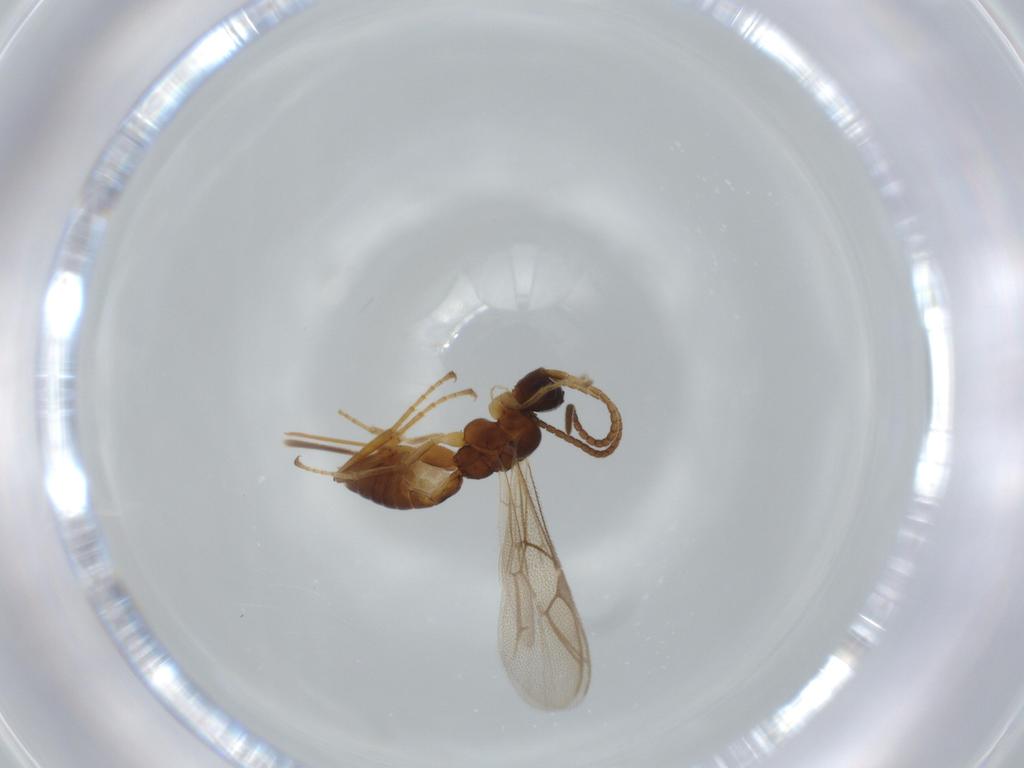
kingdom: Animalia
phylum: Arthropoda
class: Insecta
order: Hymenoptera
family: Ichneumonidae
